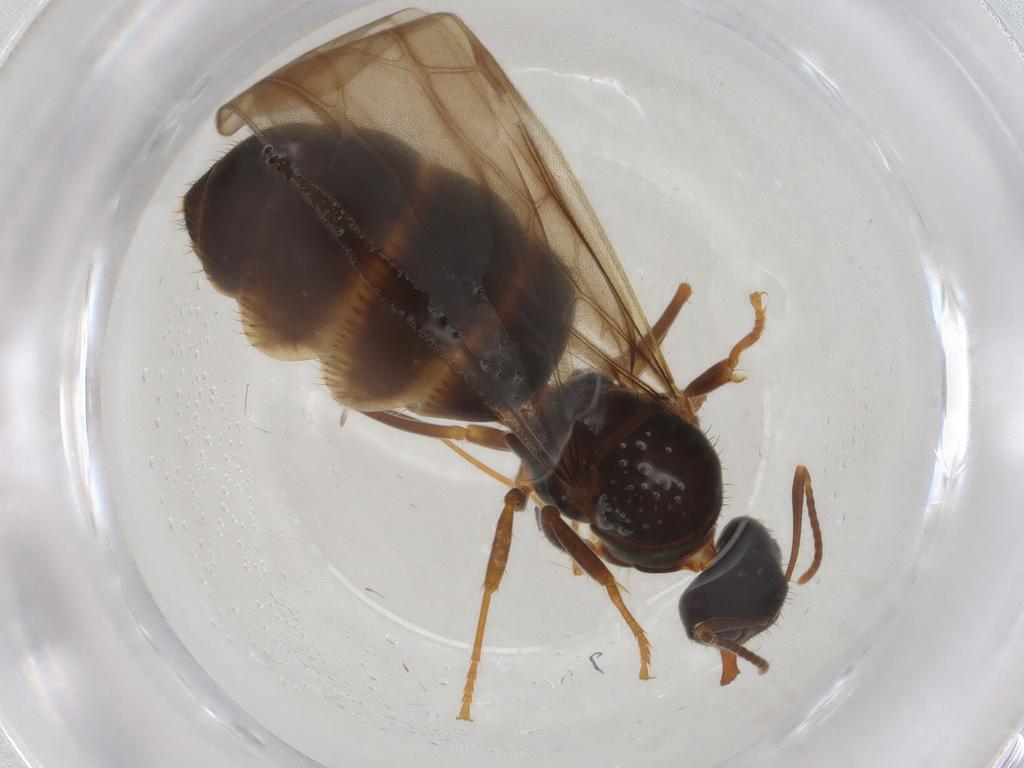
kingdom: Animalia
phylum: Arthropoda
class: Insecta
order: Hymenoptera
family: Formicidae
